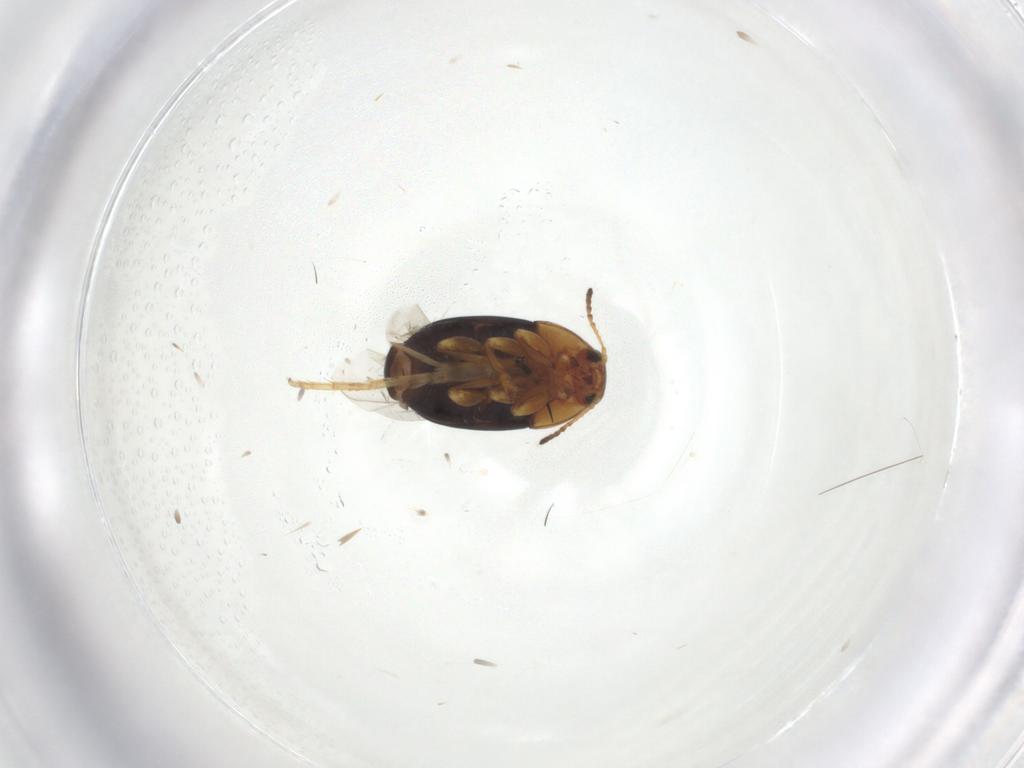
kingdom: Animalia
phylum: Arthropoda
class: Insecta
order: Coleoptera
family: Chrysomelidae
